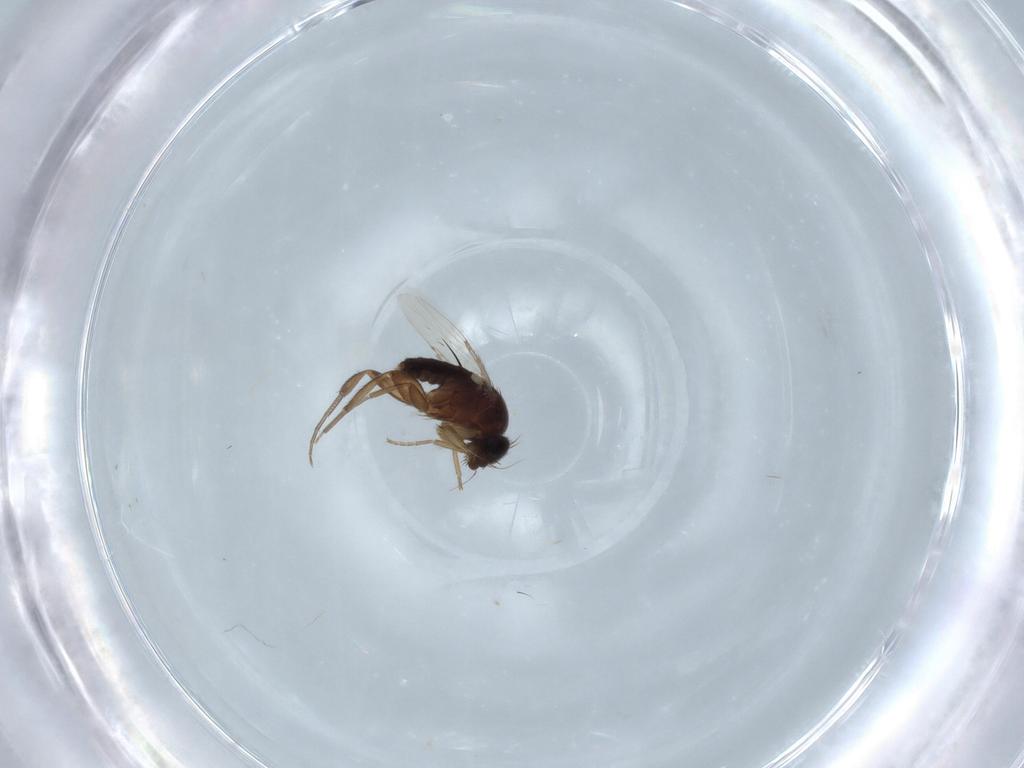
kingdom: Animalia
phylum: Arthropoda
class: Insecta
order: Diptera
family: Phoridae
